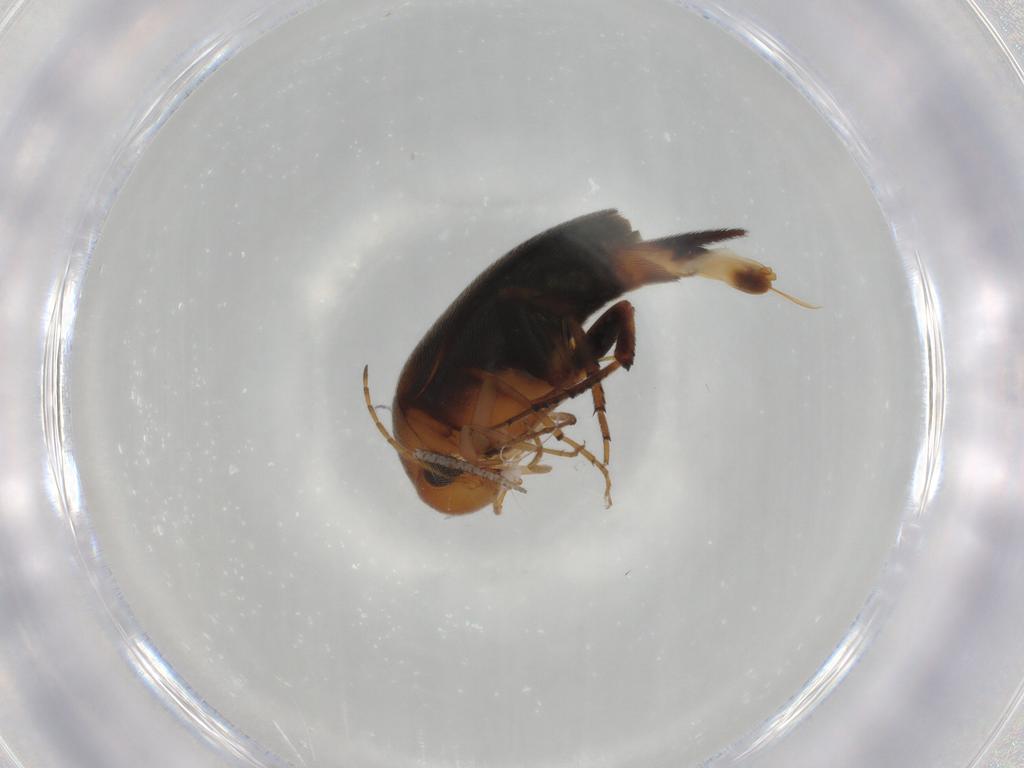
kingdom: Animalia
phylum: Arthropoda
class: Insecta
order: Coleoptera
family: Mordellidae
